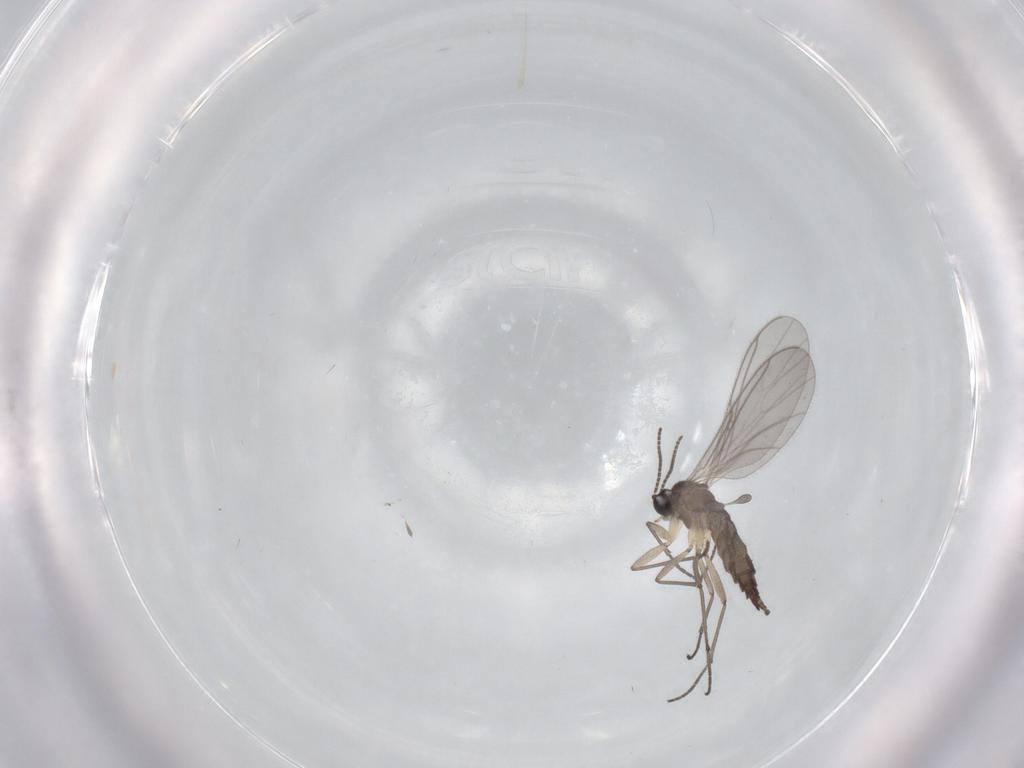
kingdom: Animalia
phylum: Arthropoda
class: Insecta
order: Diptera
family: Sciaridae
